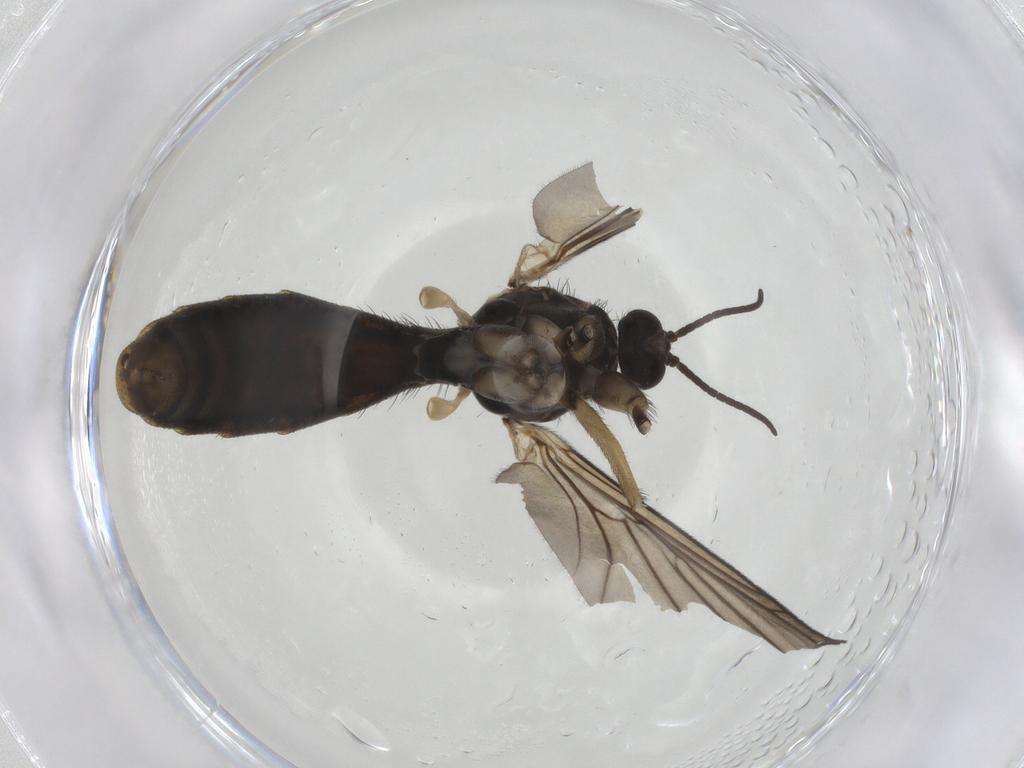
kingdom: Animalia
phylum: Arthropoda
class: Insecta
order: Diptera
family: Keroplatidae
